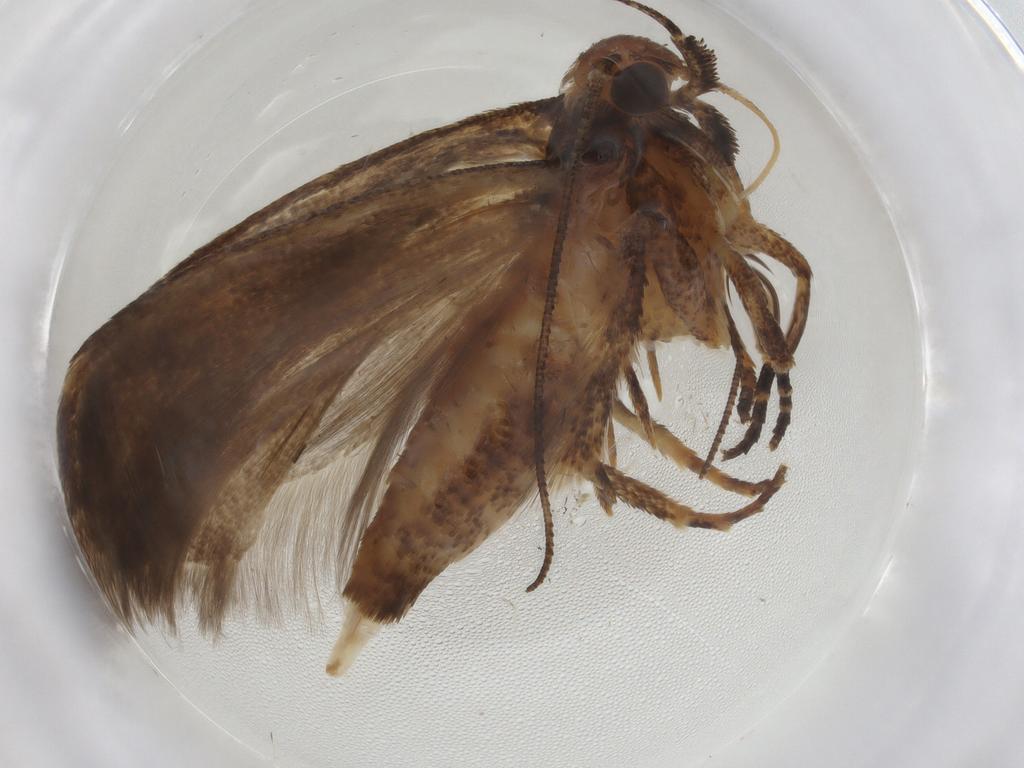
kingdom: Animalia
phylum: Arthropoda
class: Insecta
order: Lepidoptera
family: Gelechiidae
